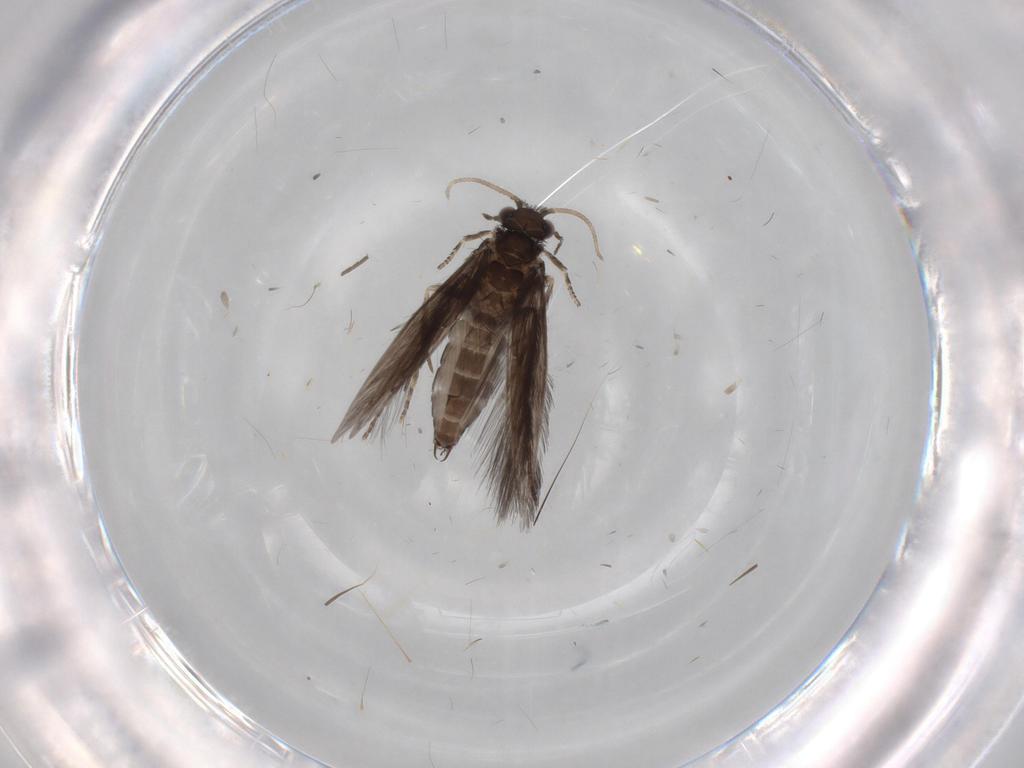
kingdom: Animalia
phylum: Arthropoda
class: Insecta
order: Trichoptera
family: Hydroptilidae
